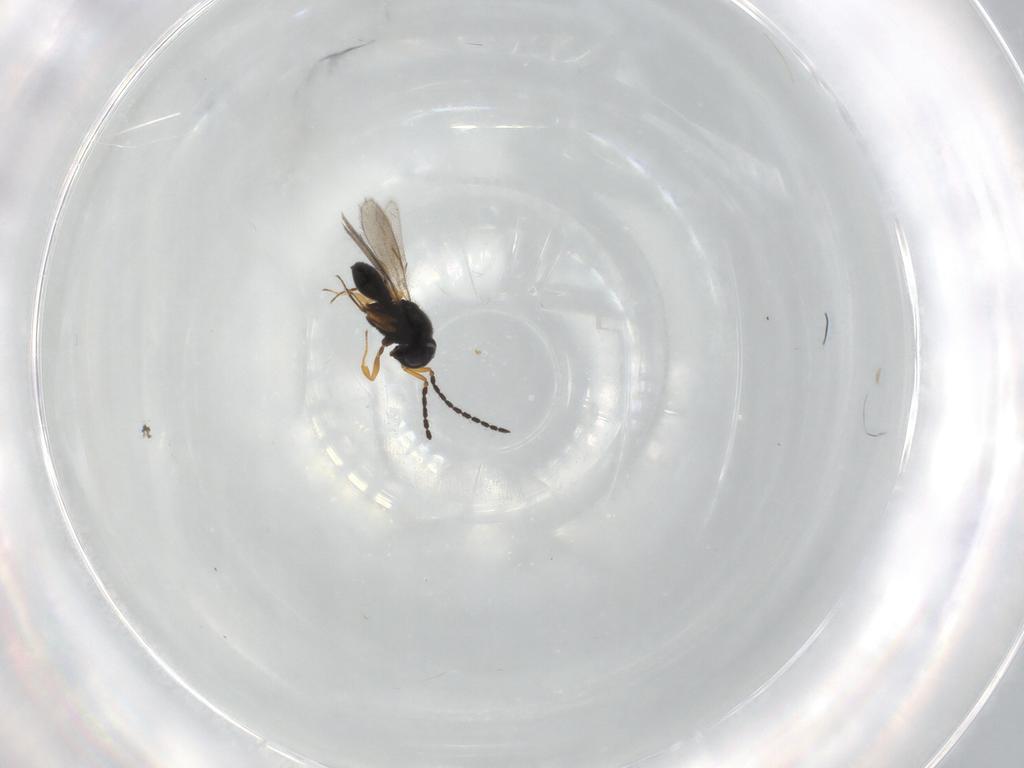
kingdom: Animalia
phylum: Arthropoda
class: Insecta
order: Hymenoptera
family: Scelionidae
